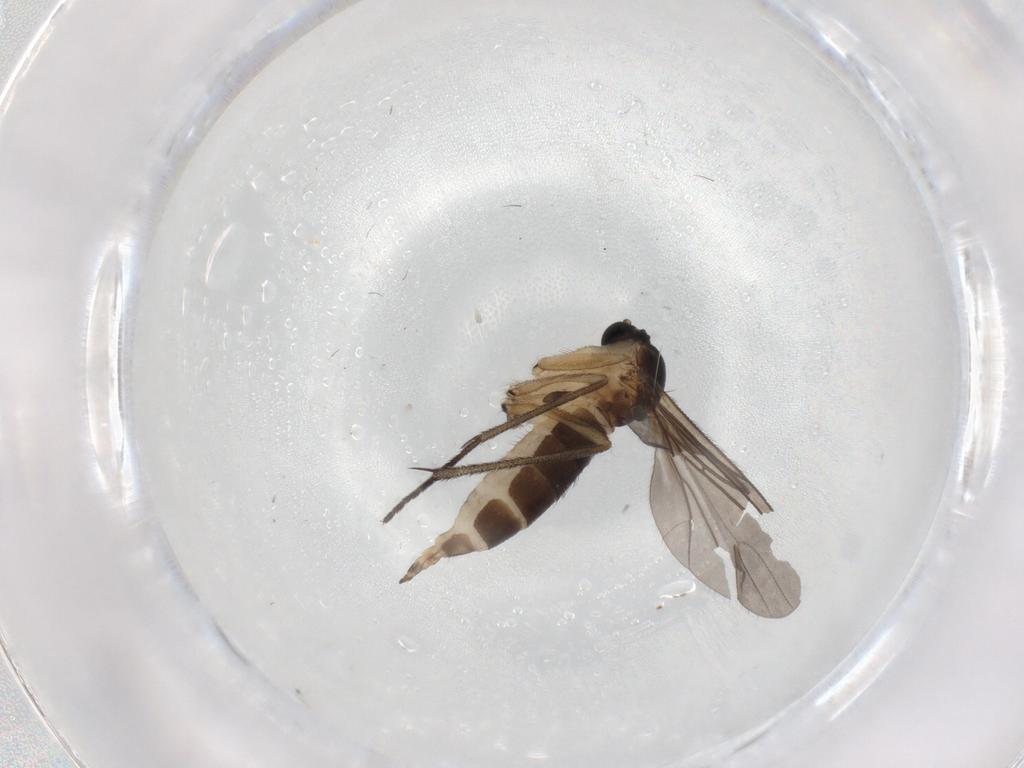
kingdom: Animalia
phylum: Arthropoda
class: Insecta
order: Diptera
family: Sciaridae
